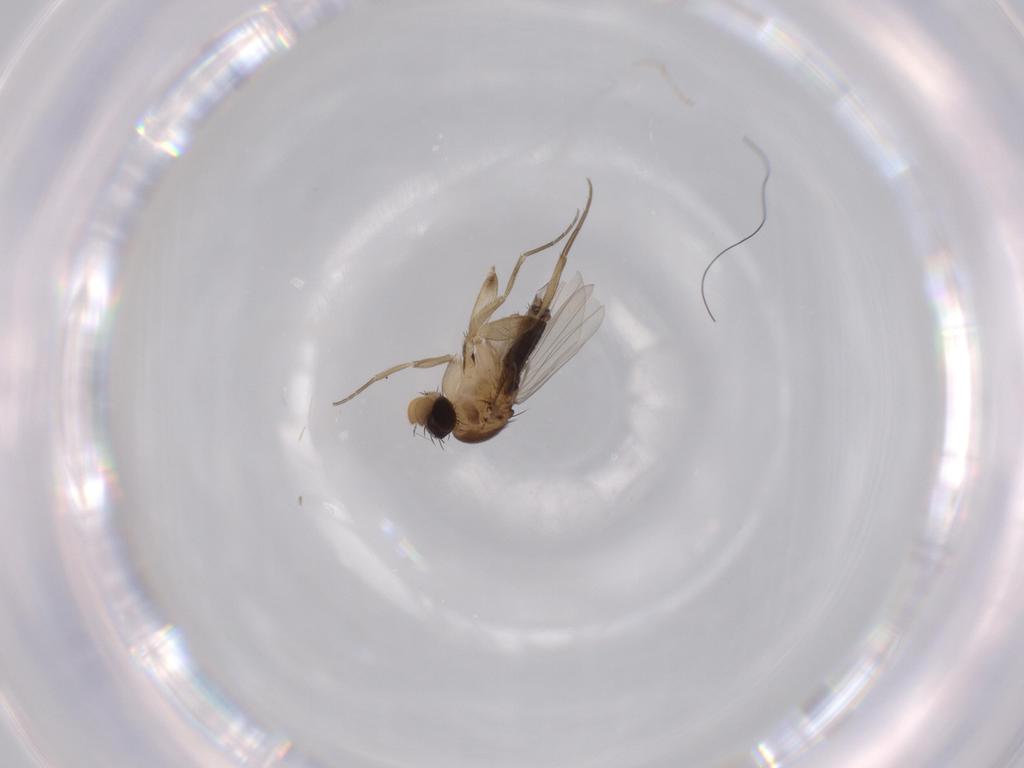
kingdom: Animalia
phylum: Arthropoda
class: Insecta
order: Diptera
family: Phoridae
